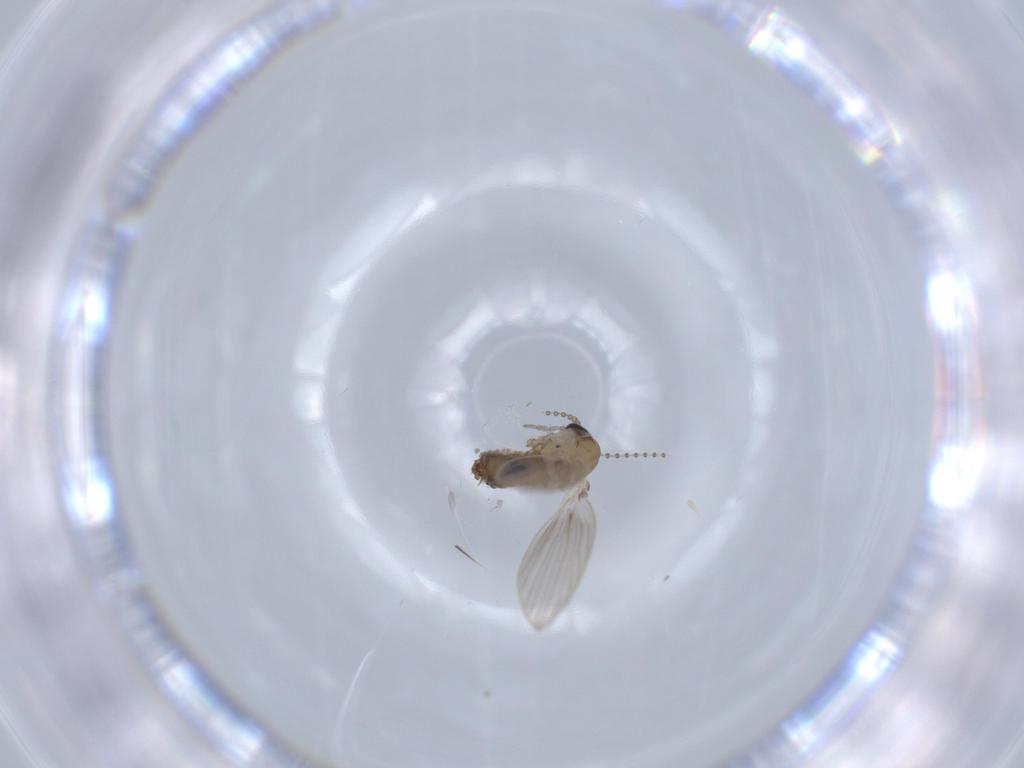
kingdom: Animalia
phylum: Arthropoda
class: Insecta
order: Diptera
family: Psychodidae
